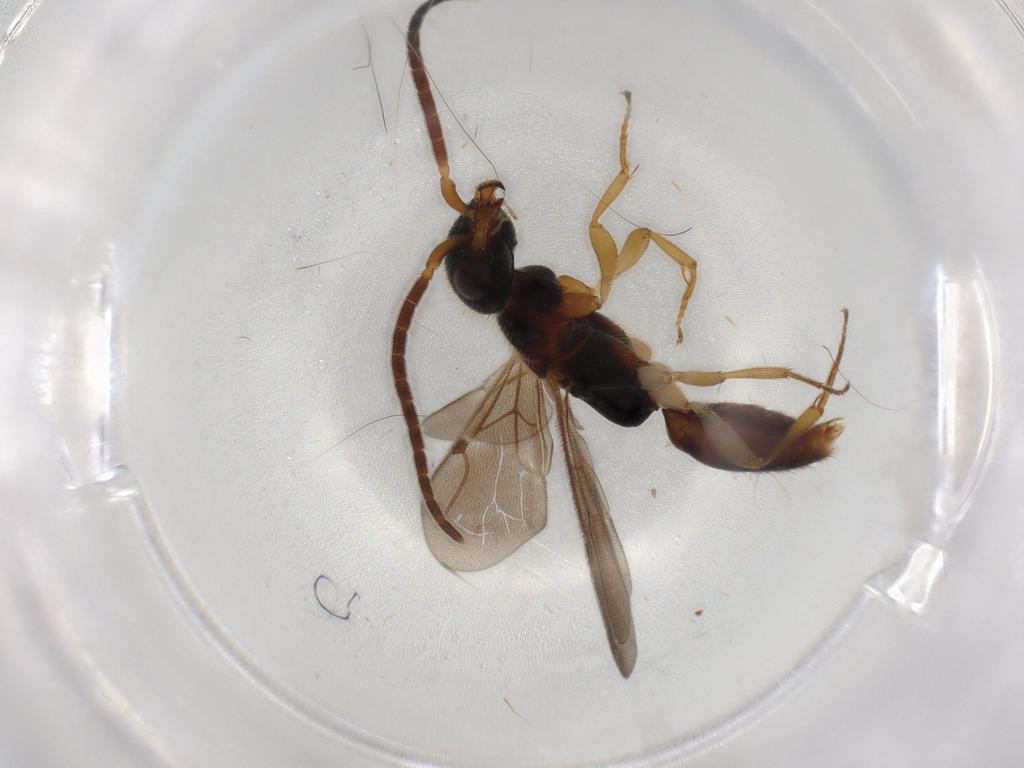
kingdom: Animalia
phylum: Arthropoda
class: Insecta
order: Hymenoptera
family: Bethylidae
